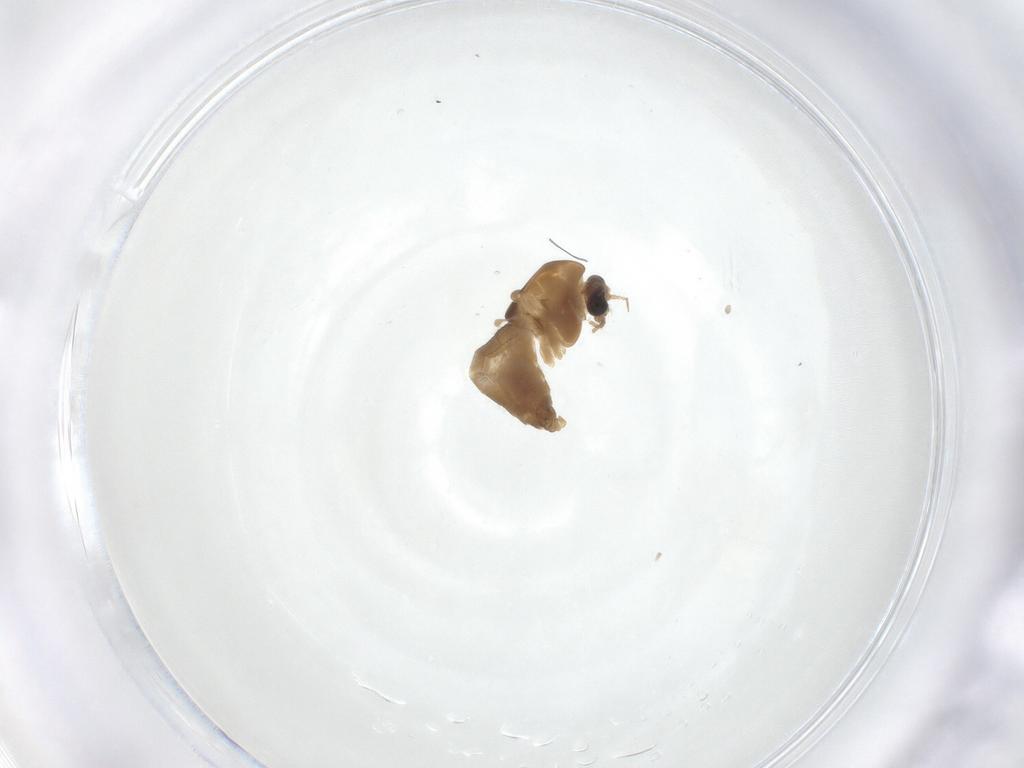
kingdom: Animalia
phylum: Arthropoda
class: Insecta
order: Diptera
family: Chironomidae
